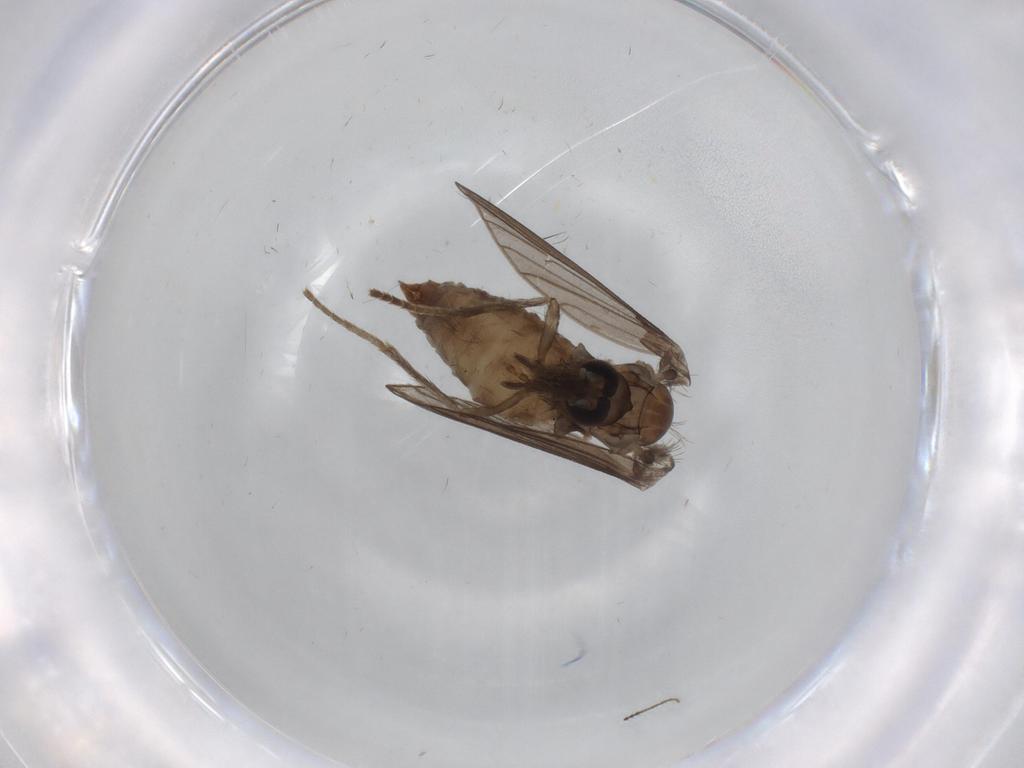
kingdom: Animalia
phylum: Arthropoda
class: Insecta
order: Diptera
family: Psychodidae
